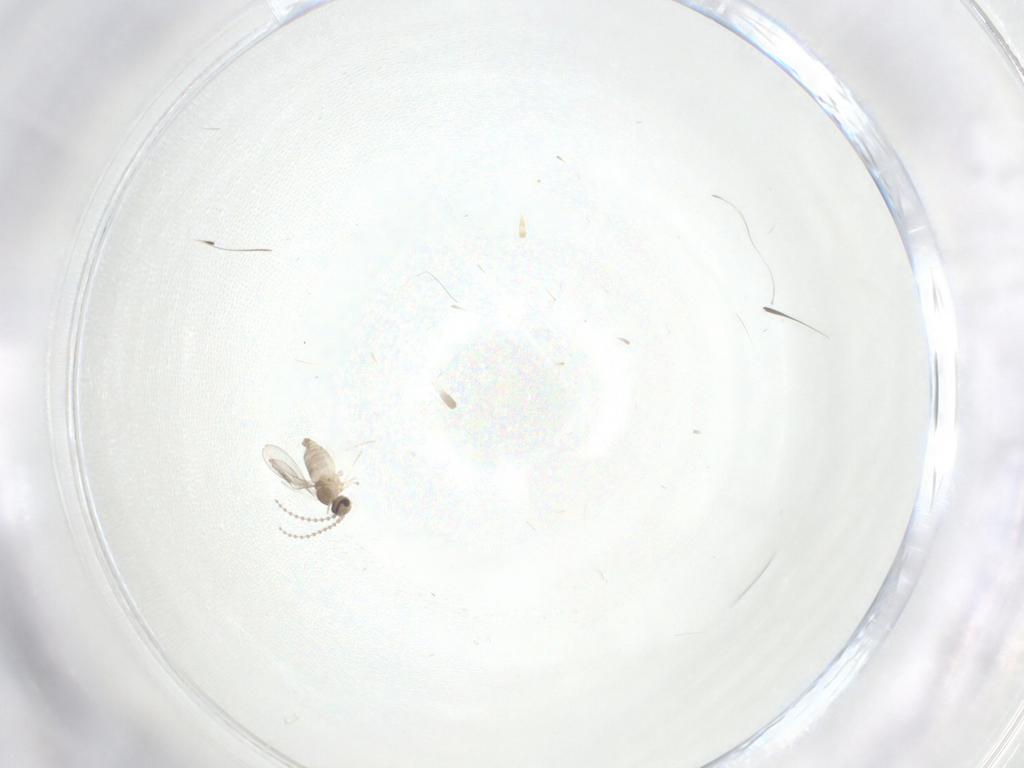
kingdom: Animalia
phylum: Arthropoda
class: Insecta
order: Diptera
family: Cecidomyiidae
